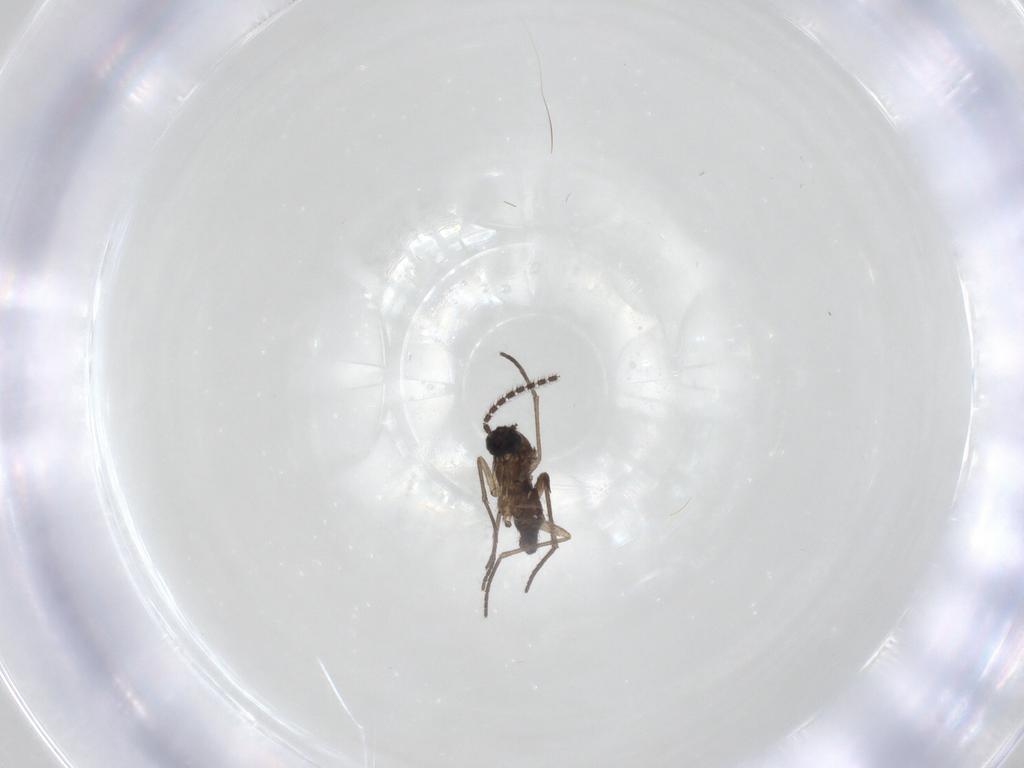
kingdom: Animalia
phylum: Arthropoda
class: Insecta
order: Diptera
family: Sciaridae
